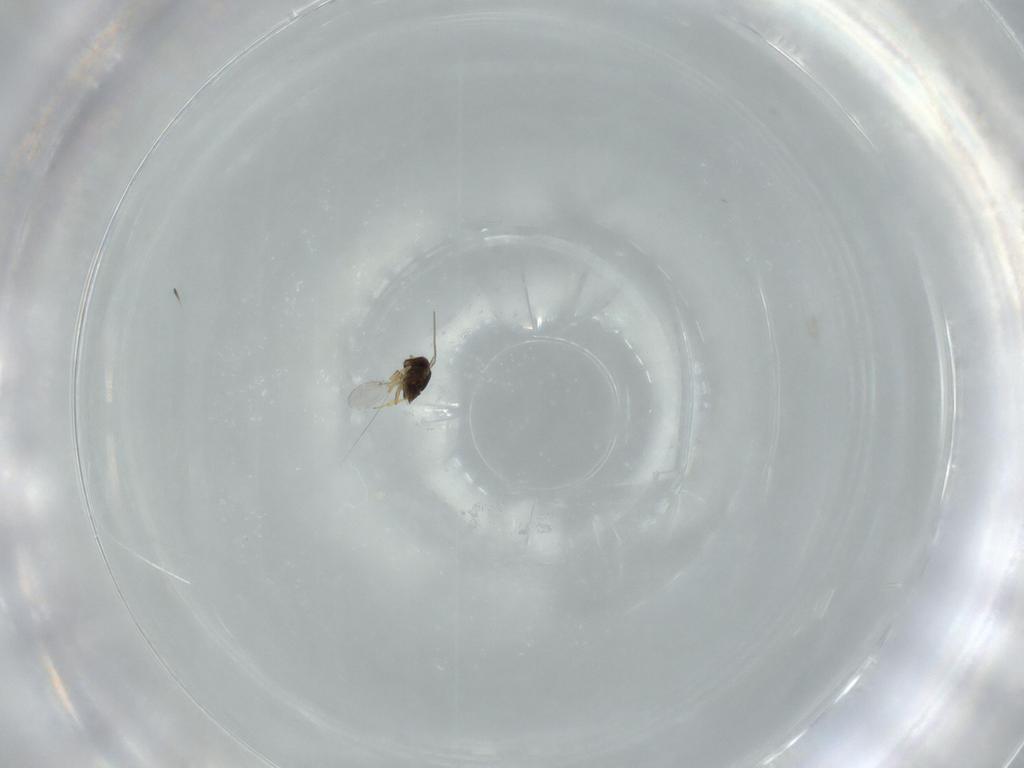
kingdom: Animalia
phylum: Arthropoda
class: Insecta
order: Hymenoptera
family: Encyrtidae
